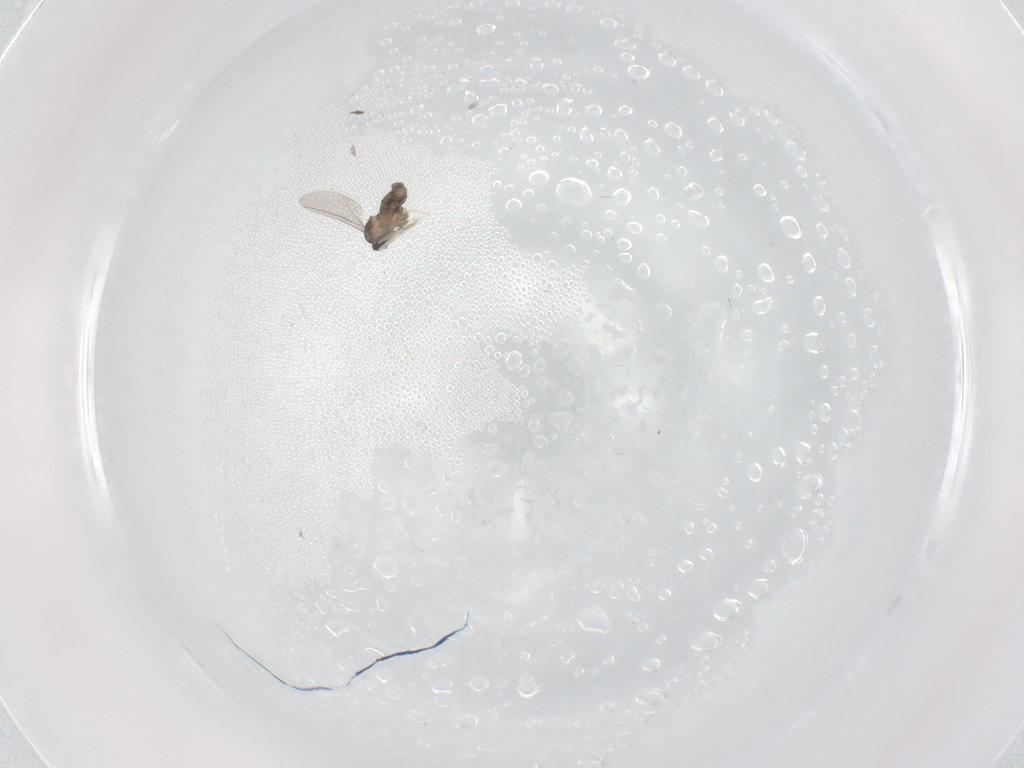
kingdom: Animalia
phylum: Arthropoda
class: Insecta
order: Diptera
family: Cecidomyiidae
